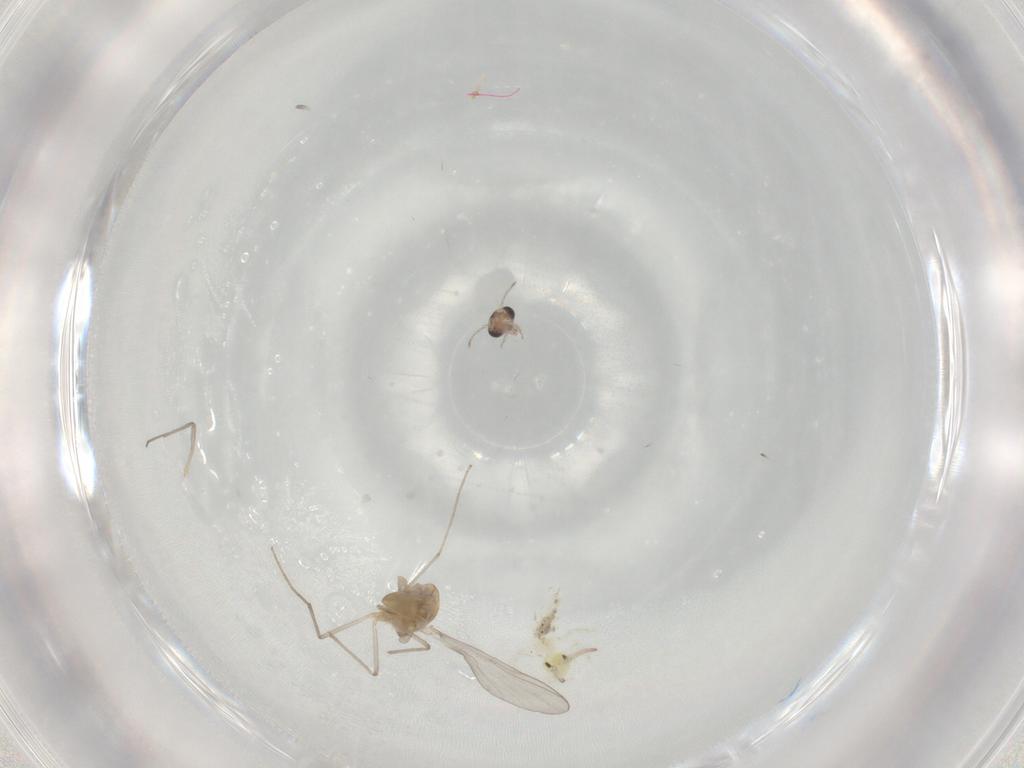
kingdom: Animalia
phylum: Arthropoda
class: Insecta
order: Diptera
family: Chironomidae
